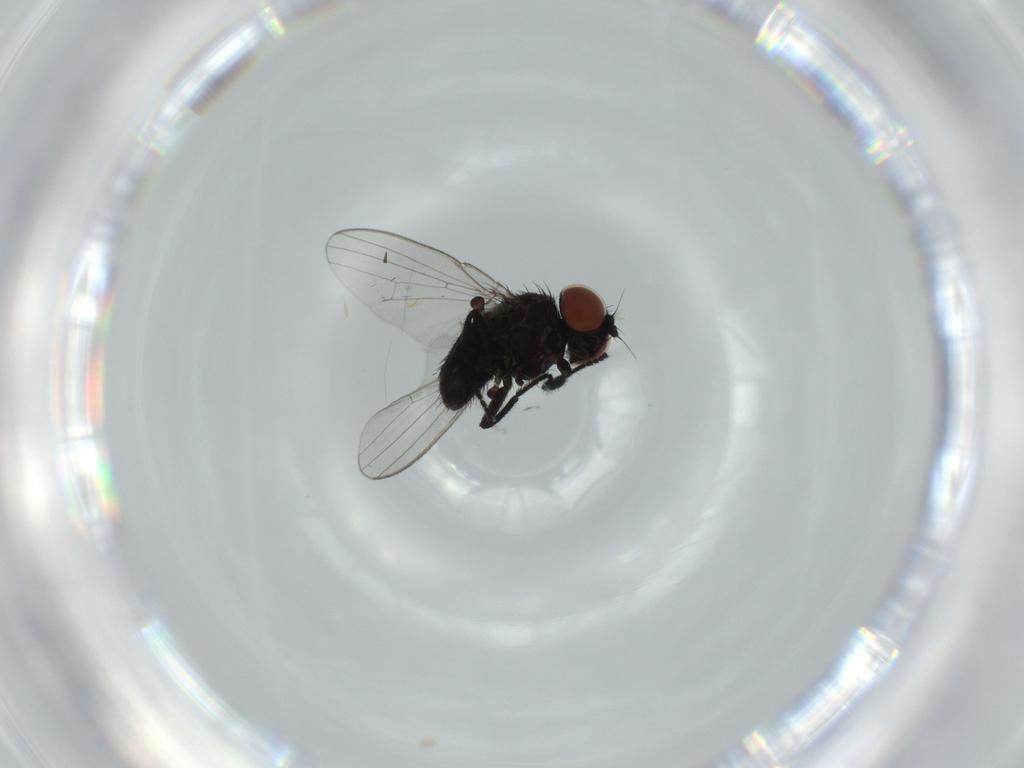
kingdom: Animalia
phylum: Arthropoda
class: Insecta
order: Diptera
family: Milichiidae
